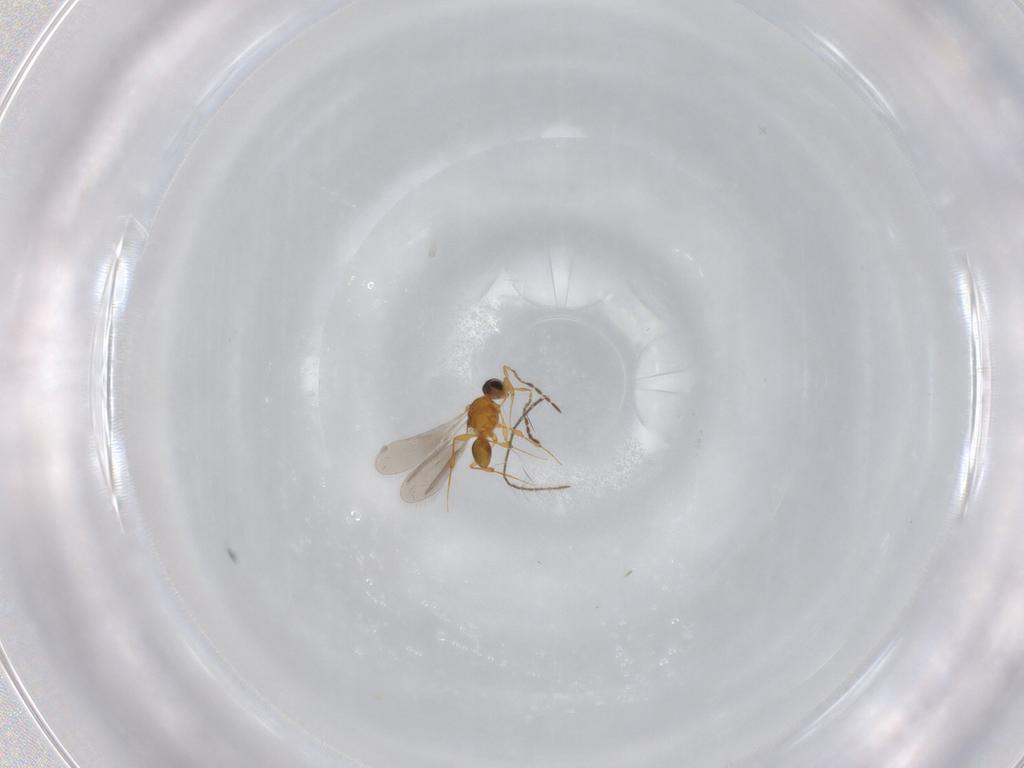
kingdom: Animalia
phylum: Arthropoda
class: Insecta
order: Hymenoptera
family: Platygastridae
